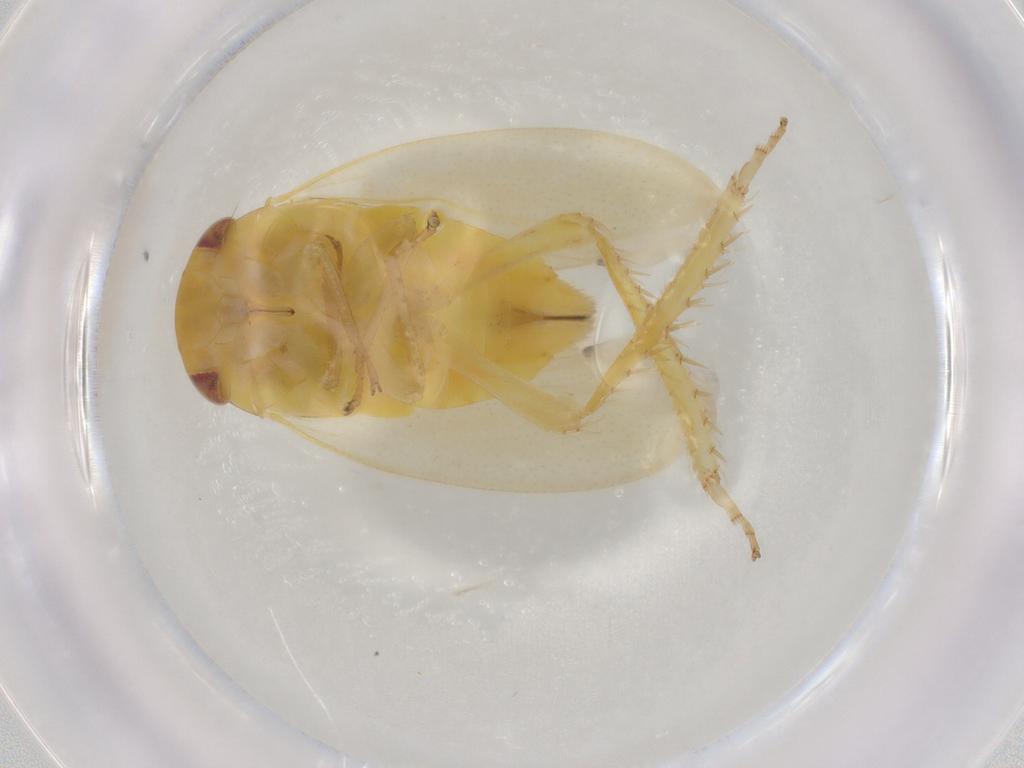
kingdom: Animalia
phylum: Arthropoda
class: Insecta
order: Hemiptera
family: Cicadellidae
